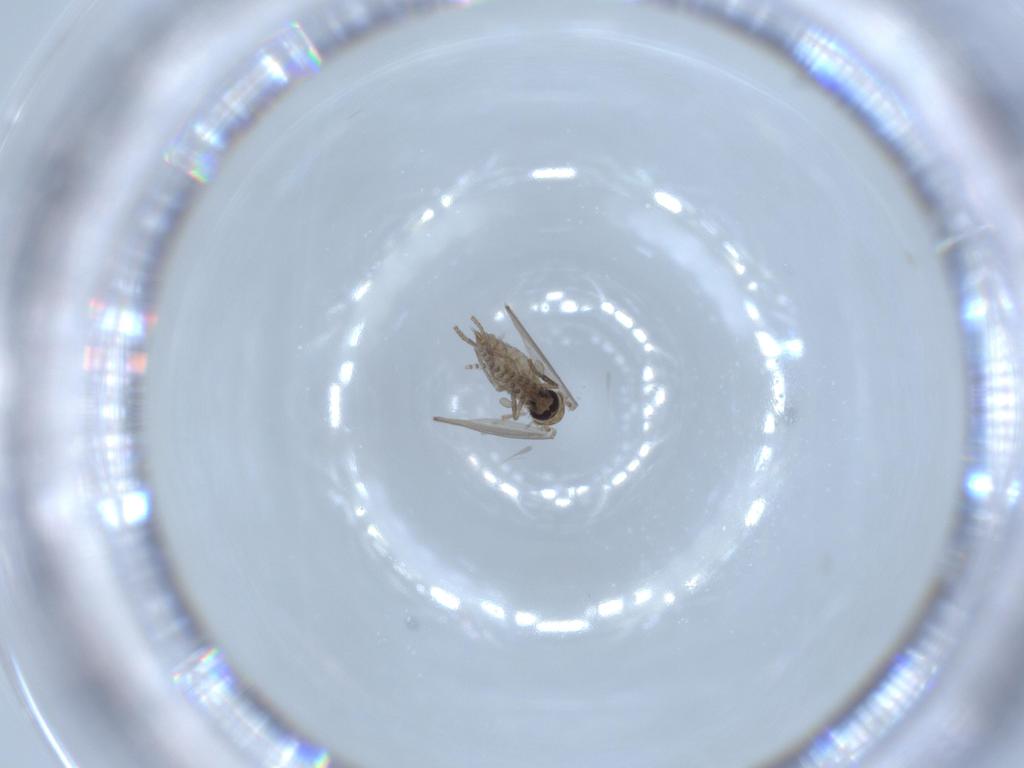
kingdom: Animalia
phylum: Arthropoda
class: Insecta
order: Diptera
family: Psychodidae
